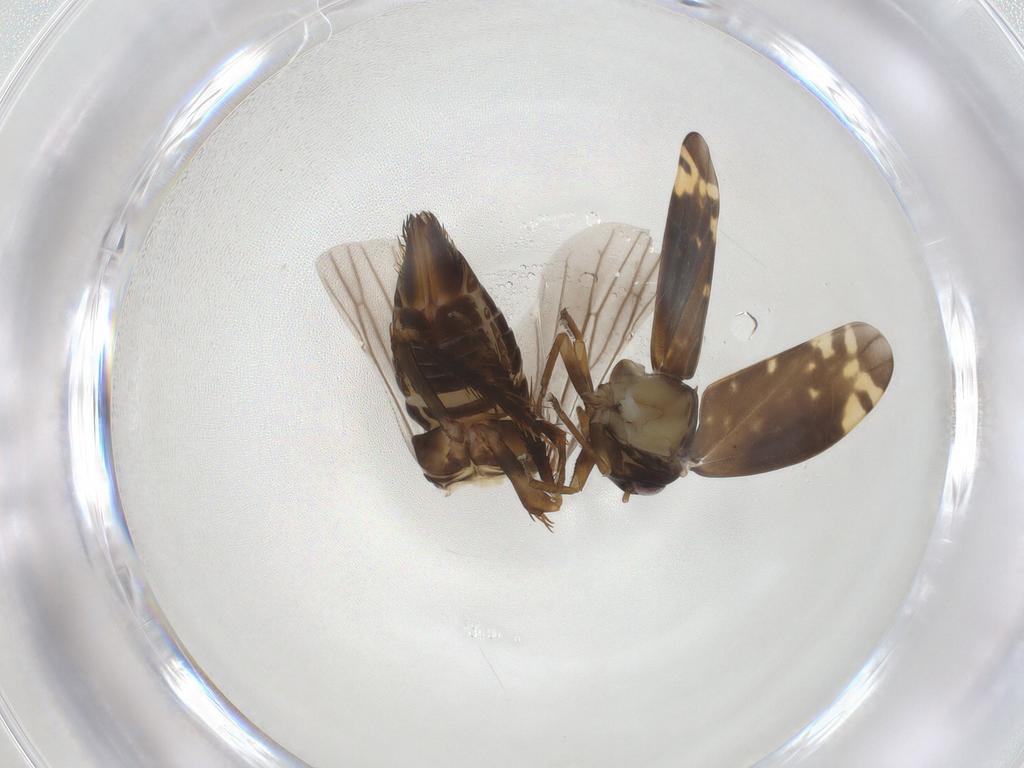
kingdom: Animalia
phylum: Arthropoda
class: Insecta
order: Hemiptera
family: Cicadellidae
